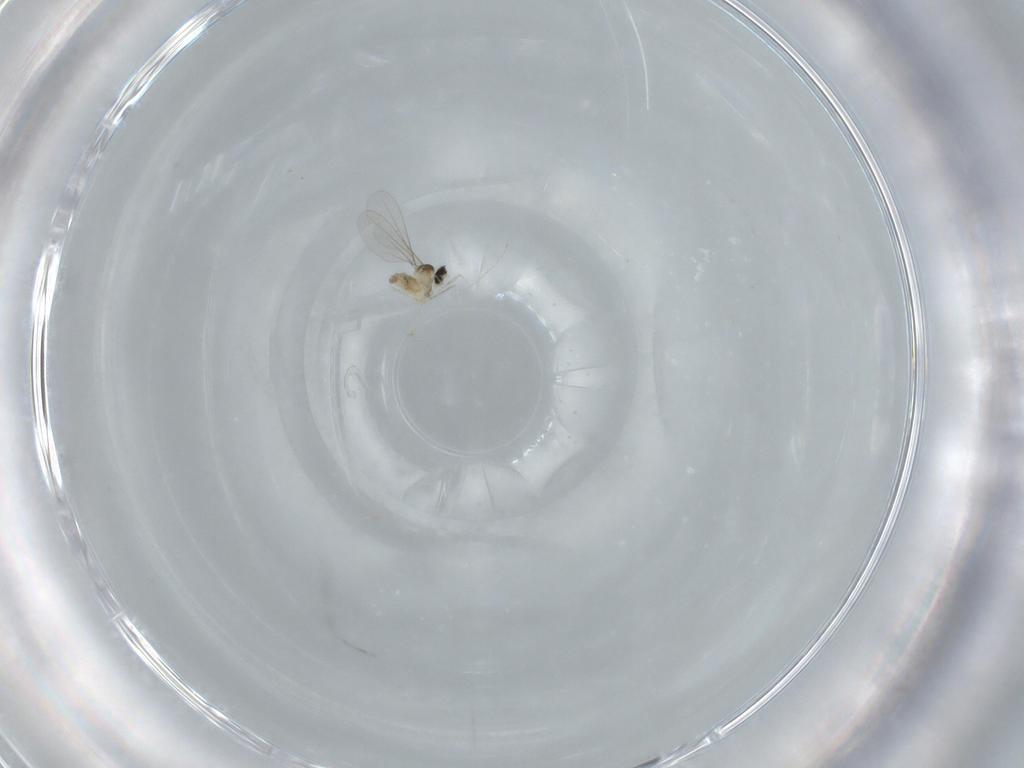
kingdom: Animalia
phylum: Arthropoda
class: Insecta
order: Diptera
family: Cecidomyiidae
